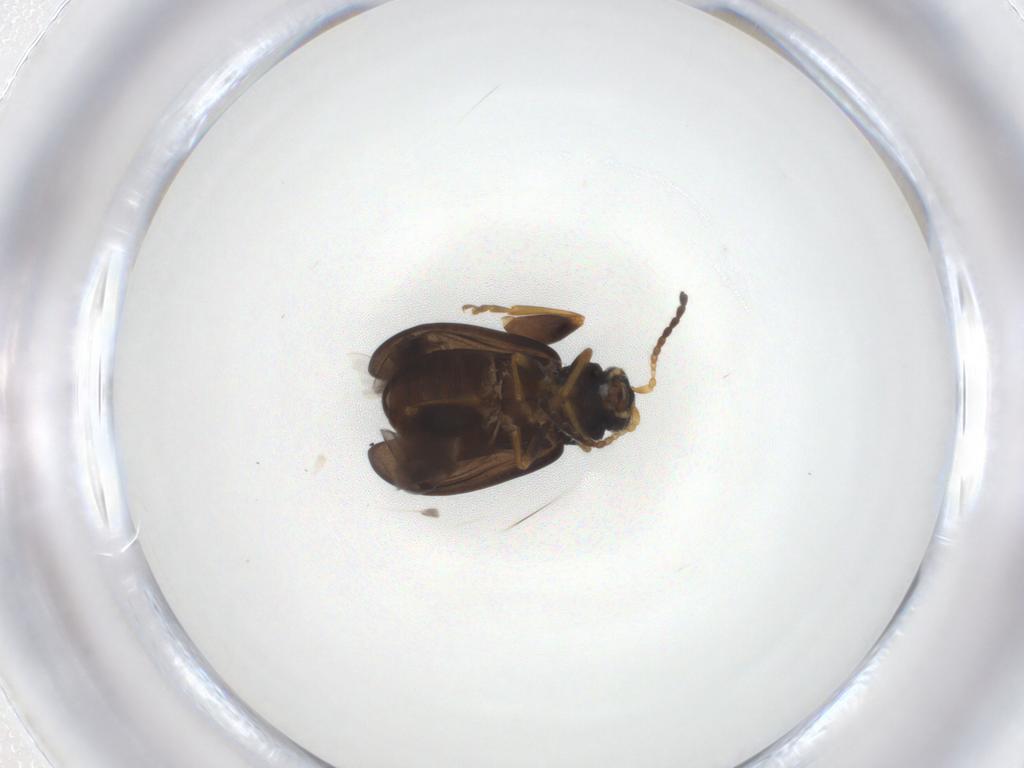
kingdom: Animalia
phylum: Arthropoda
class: Insecta
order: Coleoptera
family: Chrysomelidae
